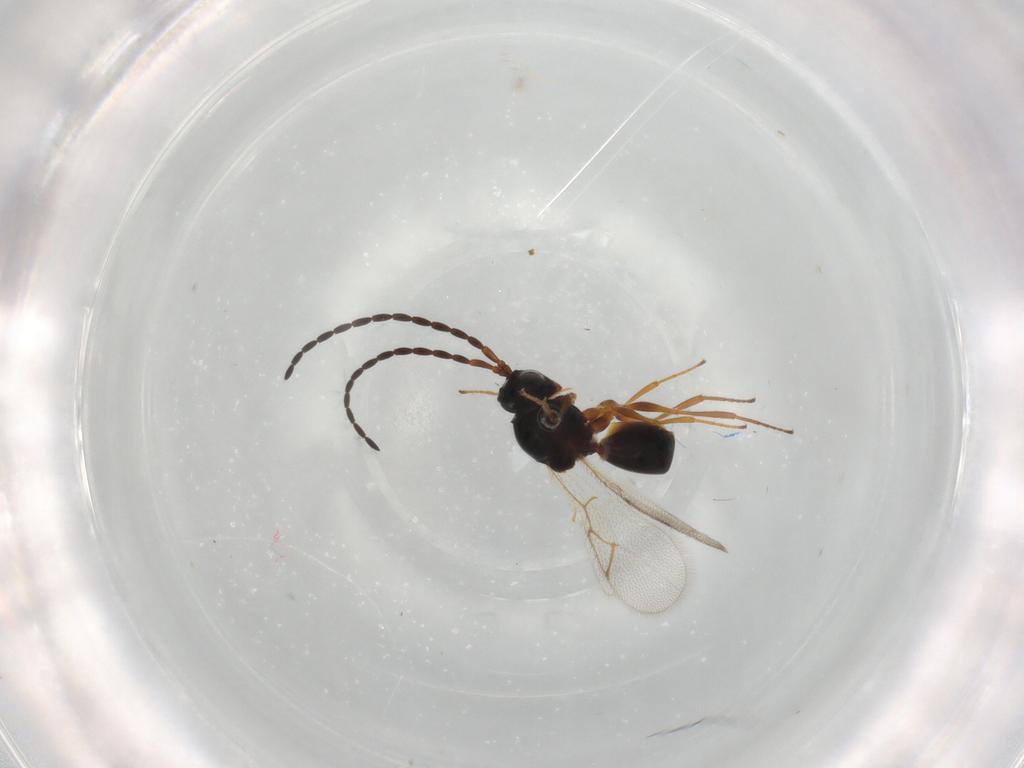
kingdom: Animalia
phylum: Arthropoda
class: Insecta
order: Hymenoptera
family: Figitidae
